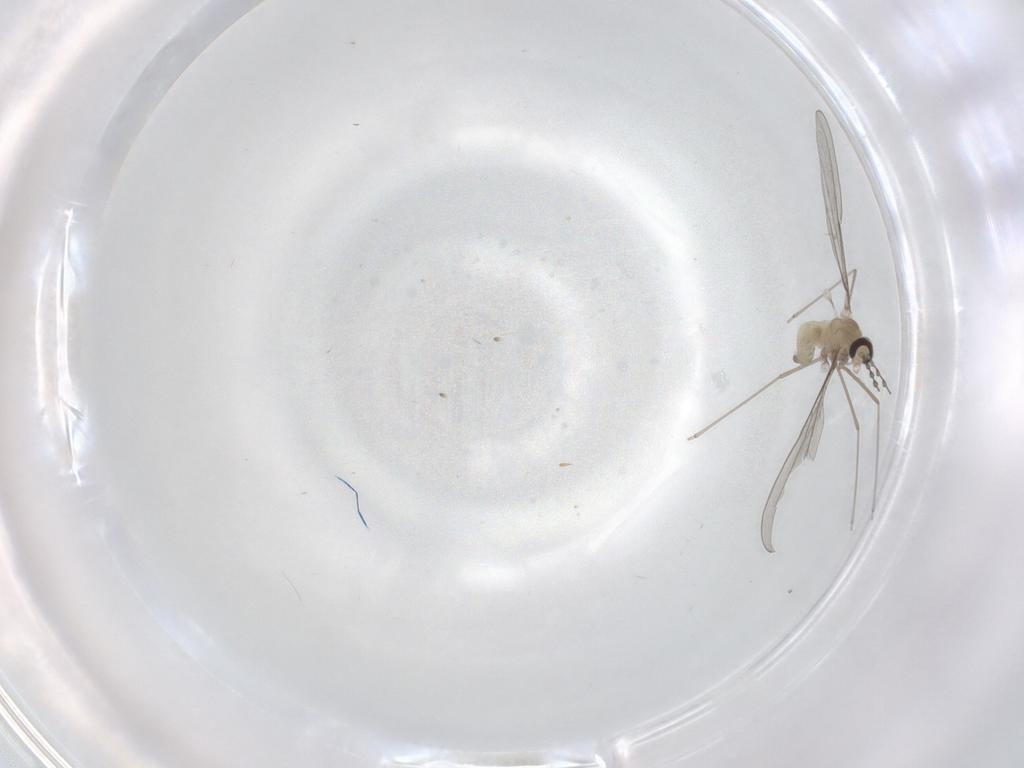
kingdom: Animalia
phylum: Arthropoda
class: Insecta
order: Diptera
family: Cecidomyiidae
